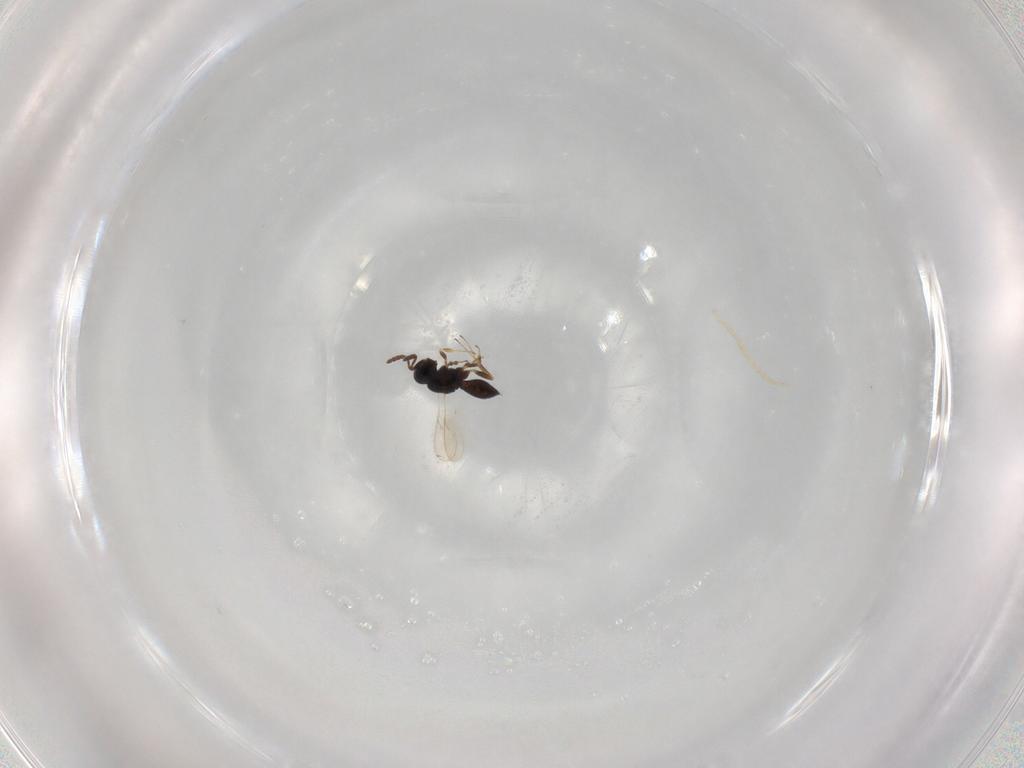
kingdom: Animalia
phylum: Arthropoda
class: Insecta
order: Hymenoptera
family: Scelionidae
